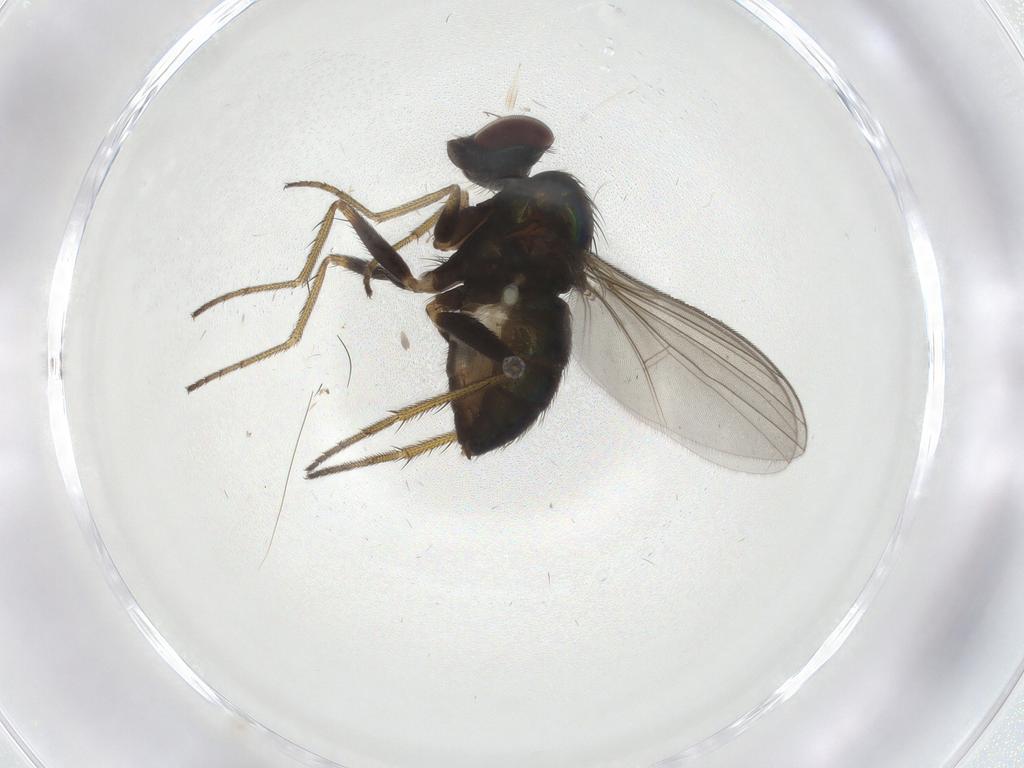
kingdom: Animalia
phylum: Arthropoda
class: Insecta
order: Diptera
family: Dolichopodidae
